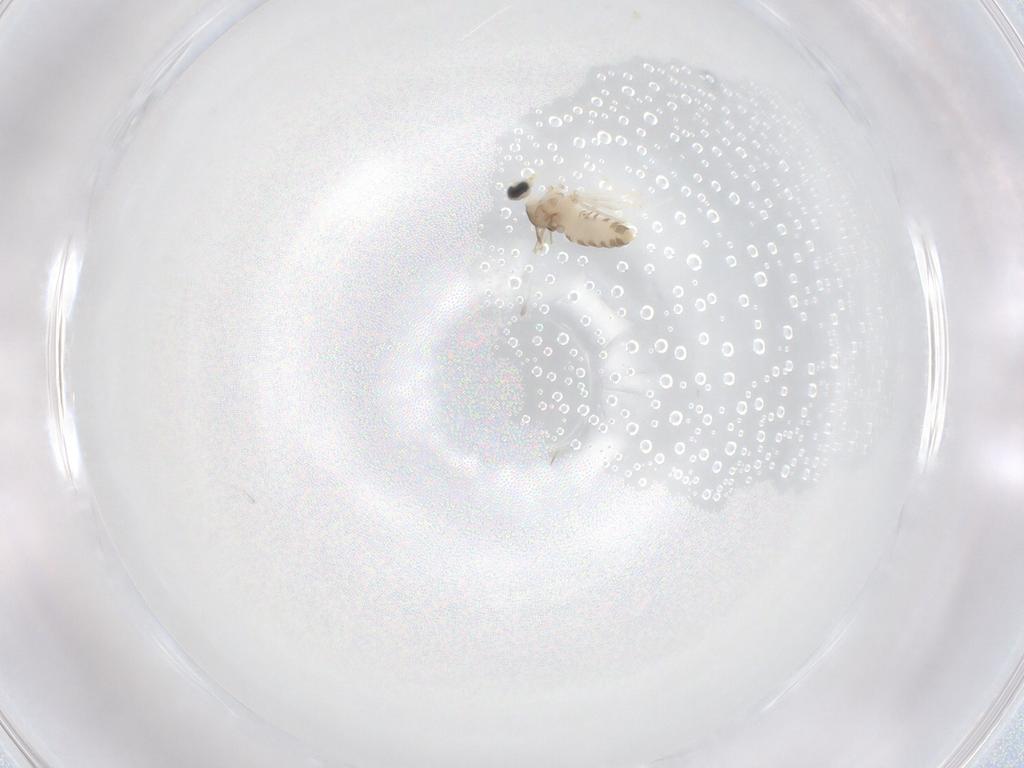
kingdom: Animalia
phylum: Arthropoda
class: Insecta
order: Diptera
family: Cecidomyiidae
